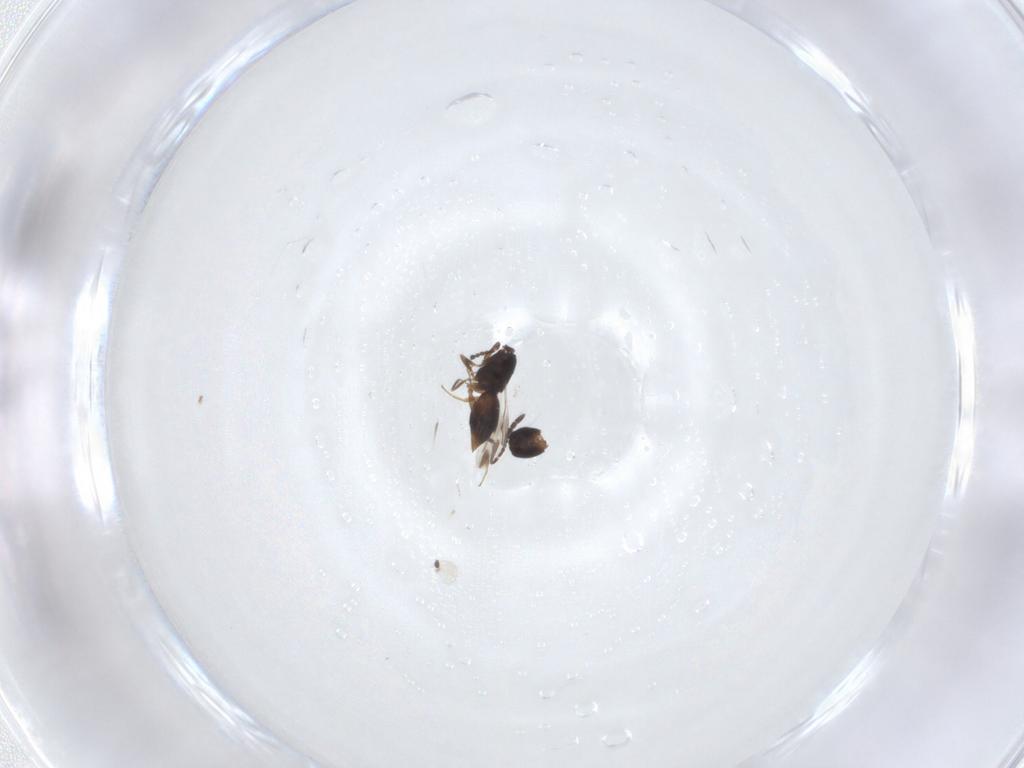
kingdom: Animalia
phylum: Arthropoda
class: Insecta
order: Hymenoptera
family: Ceraphronidae
